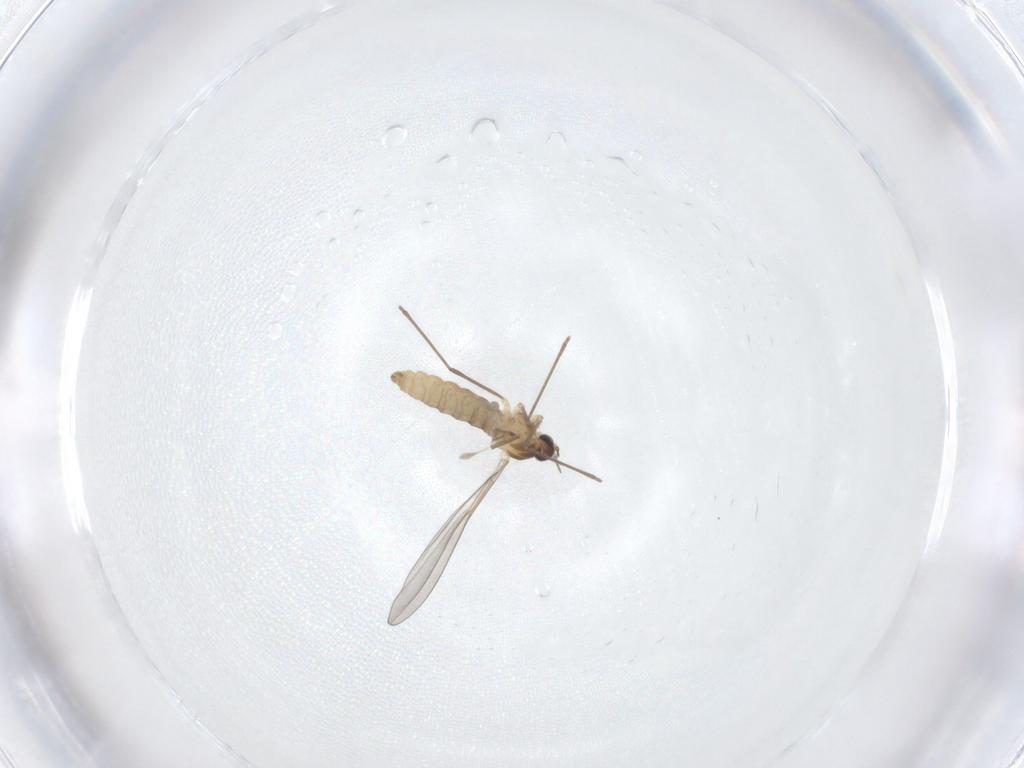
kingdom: Animalia
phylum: Arthropoda
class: Insecta
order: Diptera
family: Cecidomyiidae
